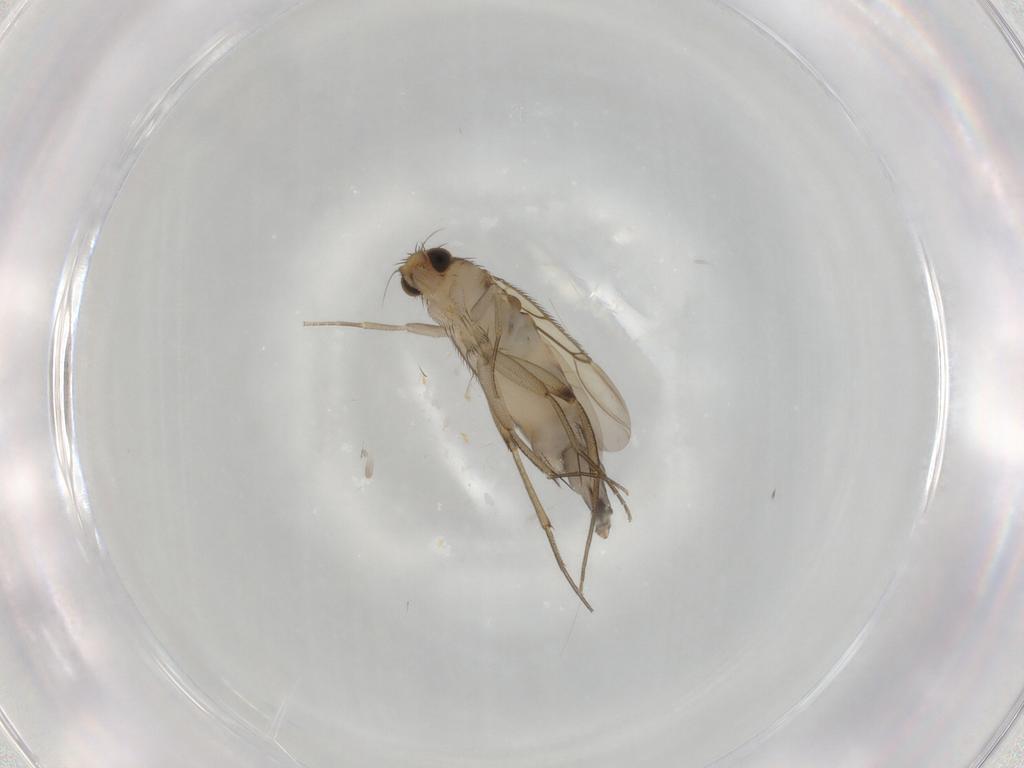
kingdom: Animalia
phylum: Arthropoda
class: Insecta
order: Diptera
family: Phoridae
